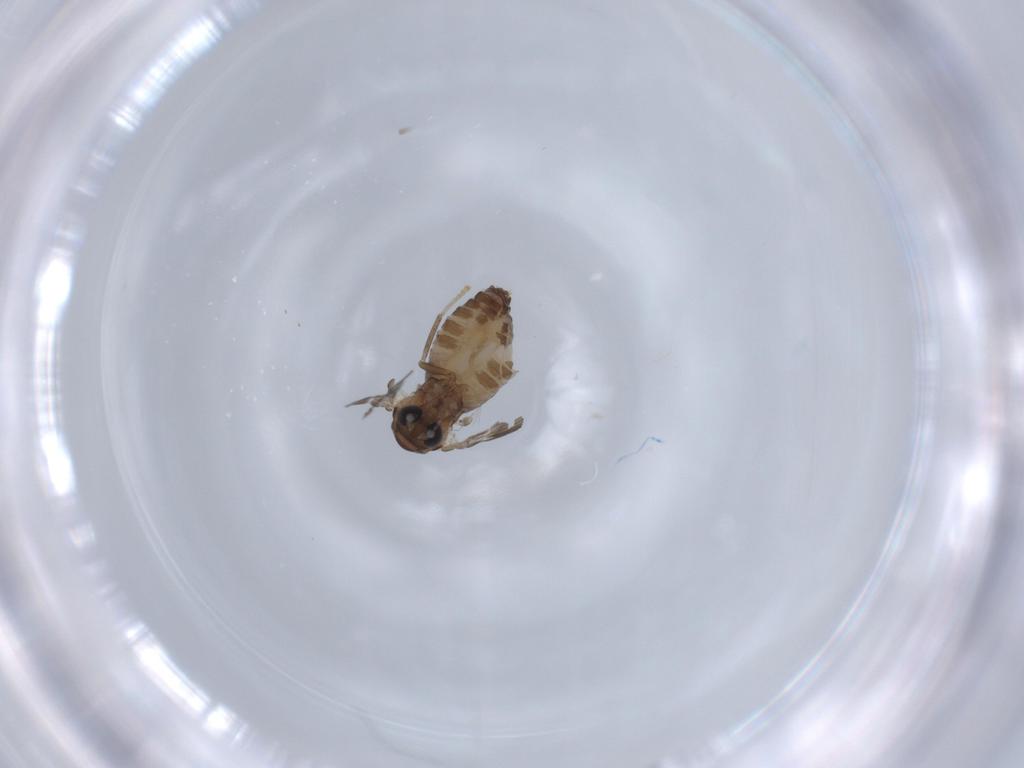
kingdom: Animalia
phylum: Arthropoda
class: Insecta
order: Diptera
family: Psychodidae
